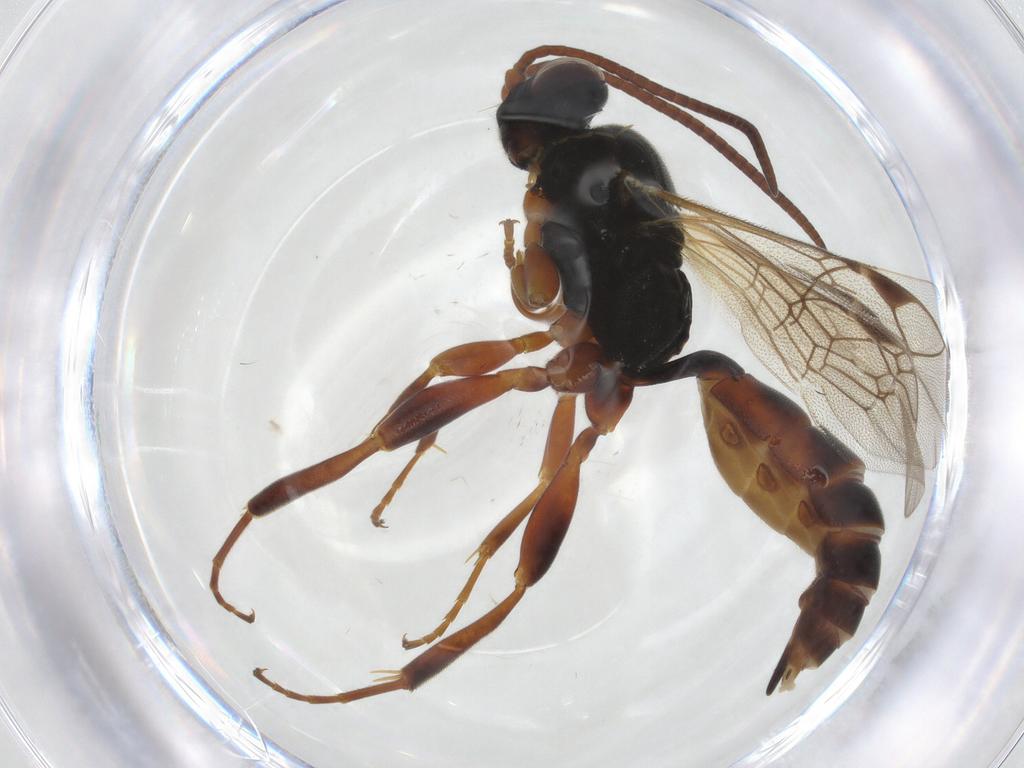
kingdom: Animalia
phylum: Arthropoda
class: Insecta
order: Hymenoptera
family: Ichneumonidae
